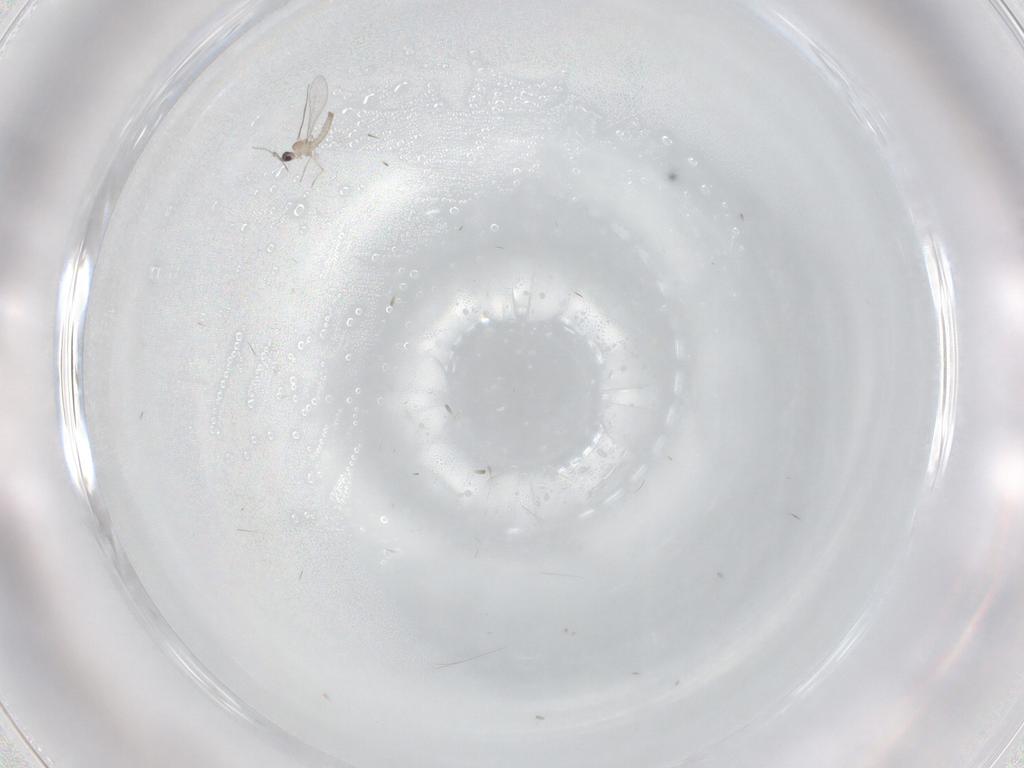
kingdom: Animalia
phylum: Arthropoda
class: Insecta
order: Diptera
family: Cecidomyiidae
